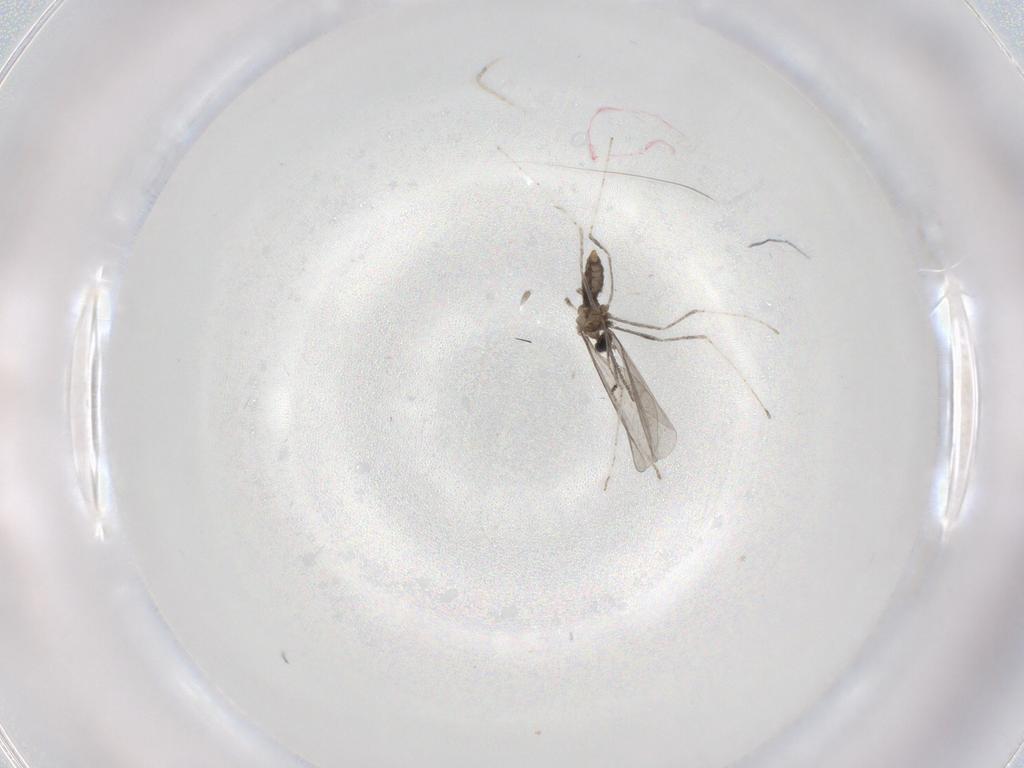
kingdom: Animalia
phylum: Arthropoda
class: Insecta
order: Diptera
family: Cecidomyiidae
